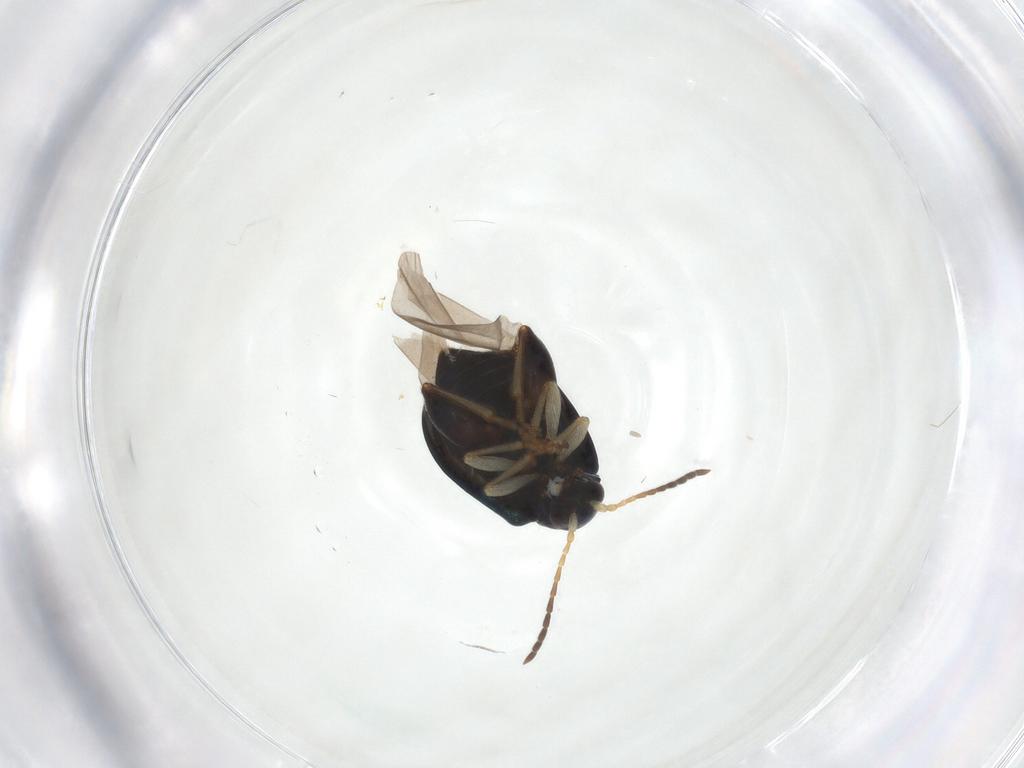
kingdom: Animalia
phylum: Arthropoda
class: Insecta
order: Coleoptera
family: Chrysomelidae
